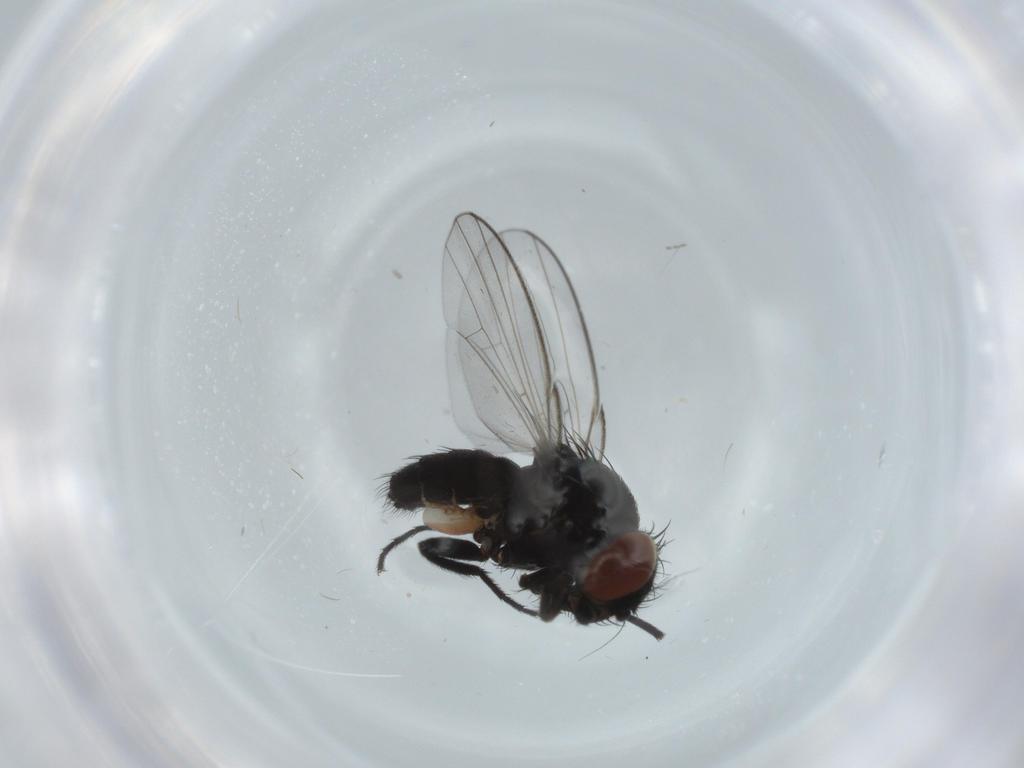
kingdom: Animalia
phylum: Arthropoda
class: Insecta
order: Diptera
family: Milichiidae
